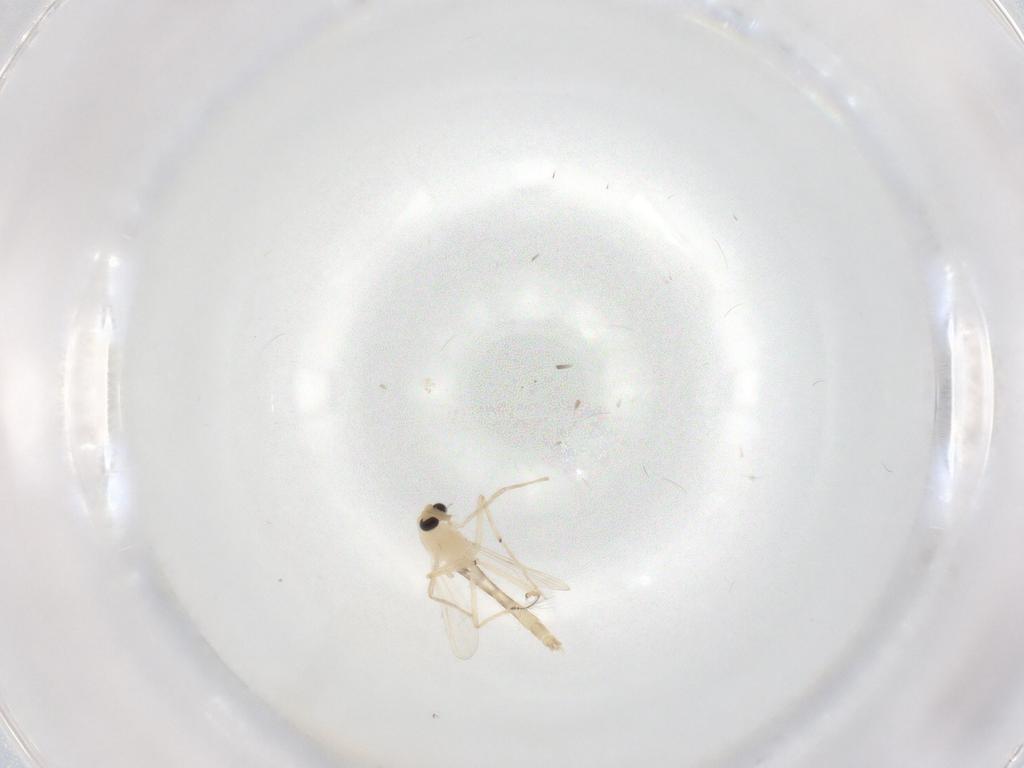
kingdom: Animalia
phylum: Arthropoda
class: Insecta
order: Diptera
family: Chironomidae
